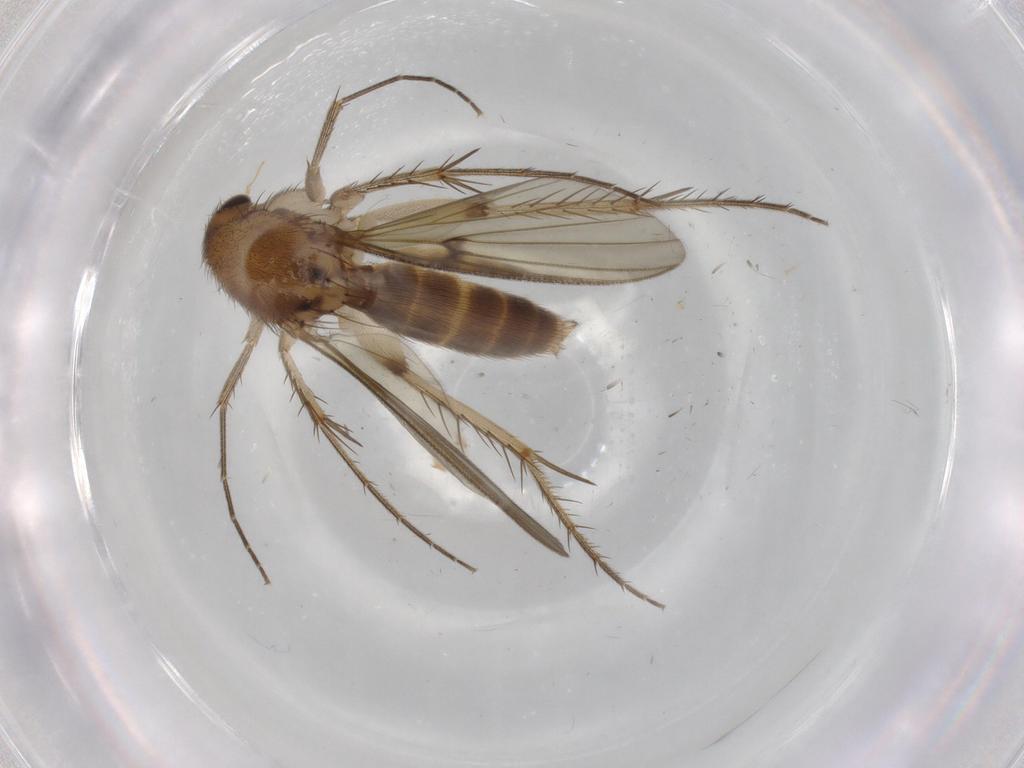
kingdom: Animalia
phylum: Arthropoda
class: Insecta
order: Diptera
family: Mycetophilidae
